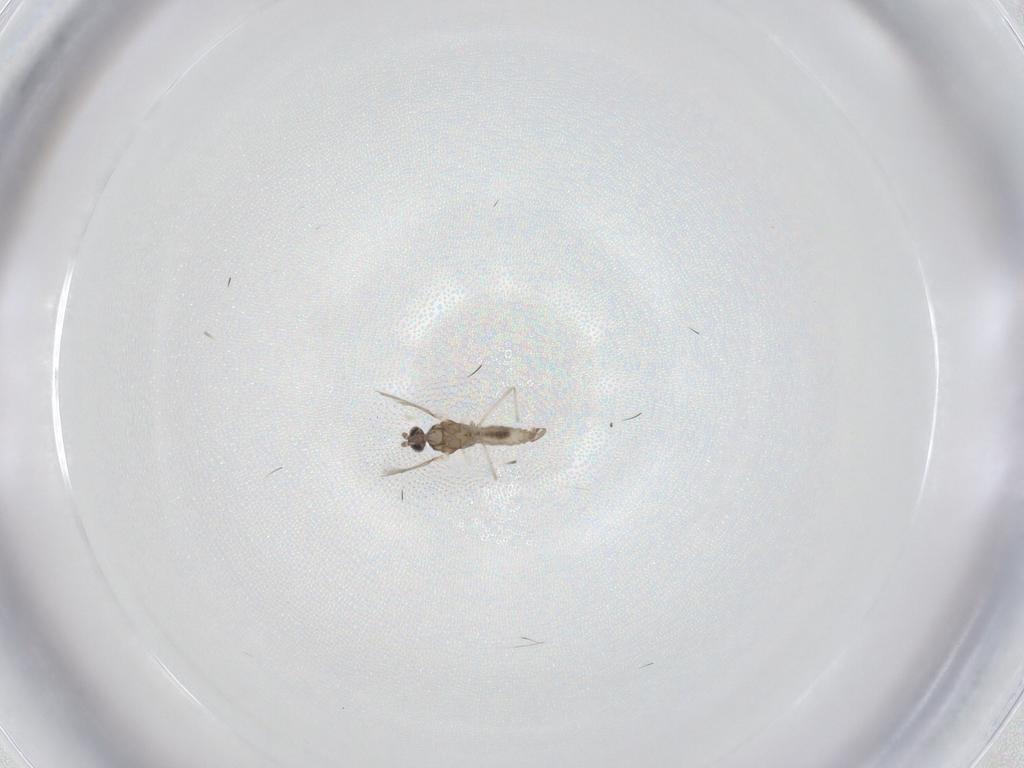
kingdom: Animalia
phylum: Arthropoda
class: Insecta
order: Diptera
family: Cecidomyiidae
